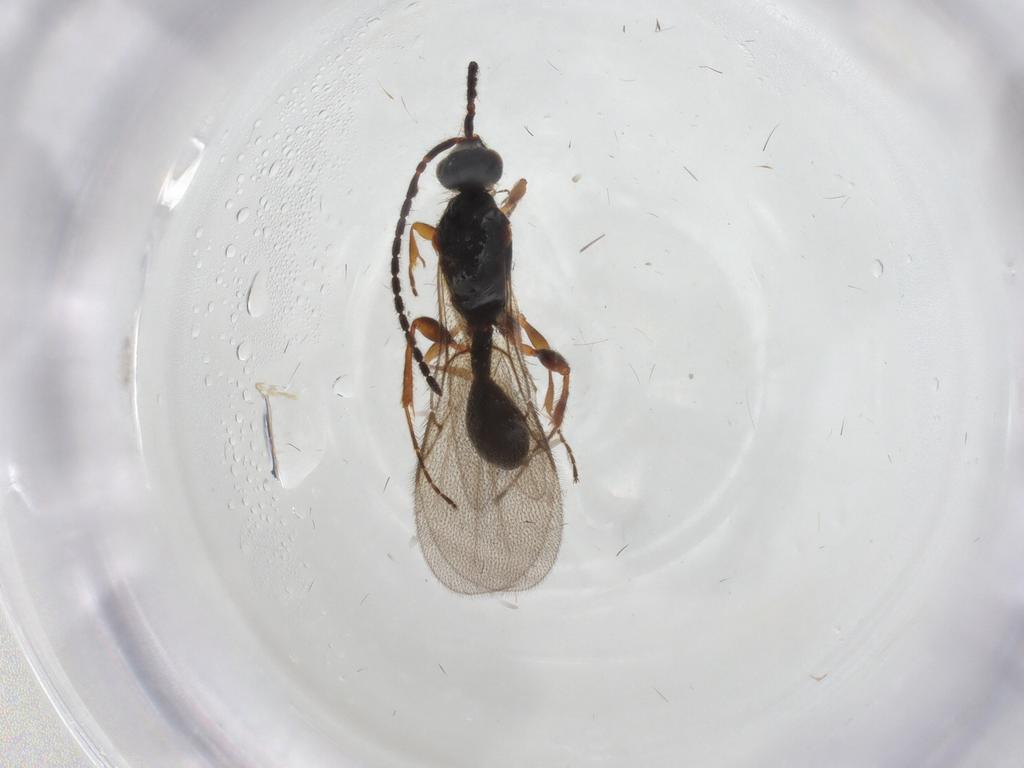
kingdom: Animalia
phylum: Arthropoda
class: Insecta
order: Hymenoptera
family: Diapriidae
